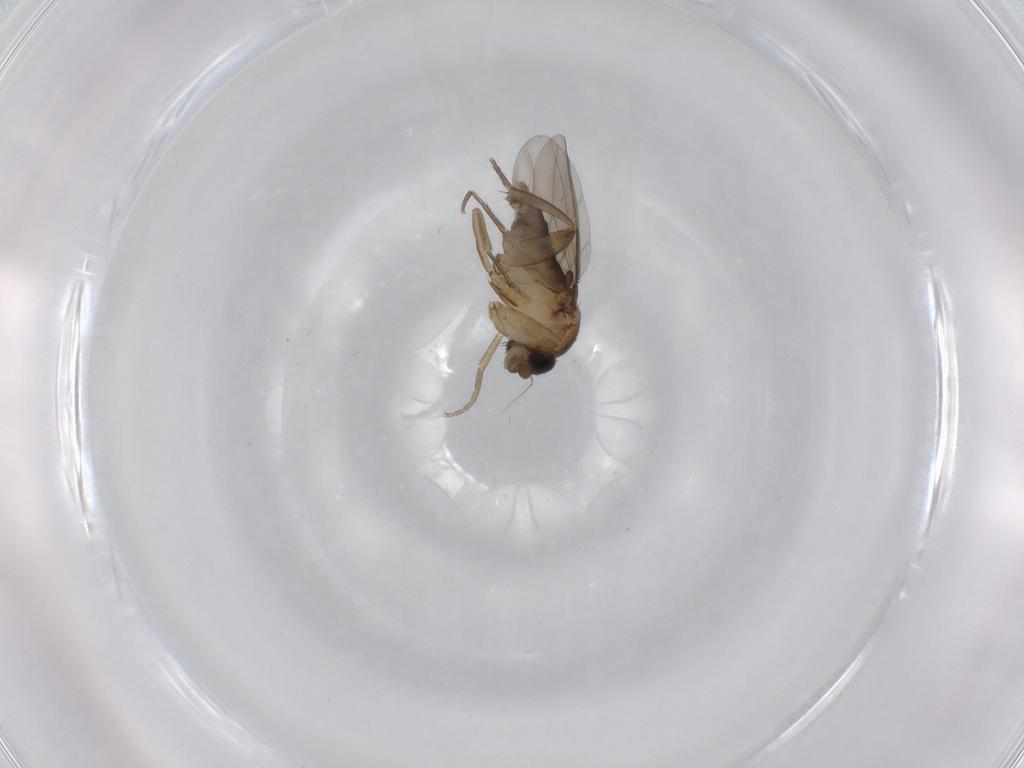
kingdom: Animalia
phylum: Arthropoda
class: Insecta
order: Diptera
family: Phoridae
